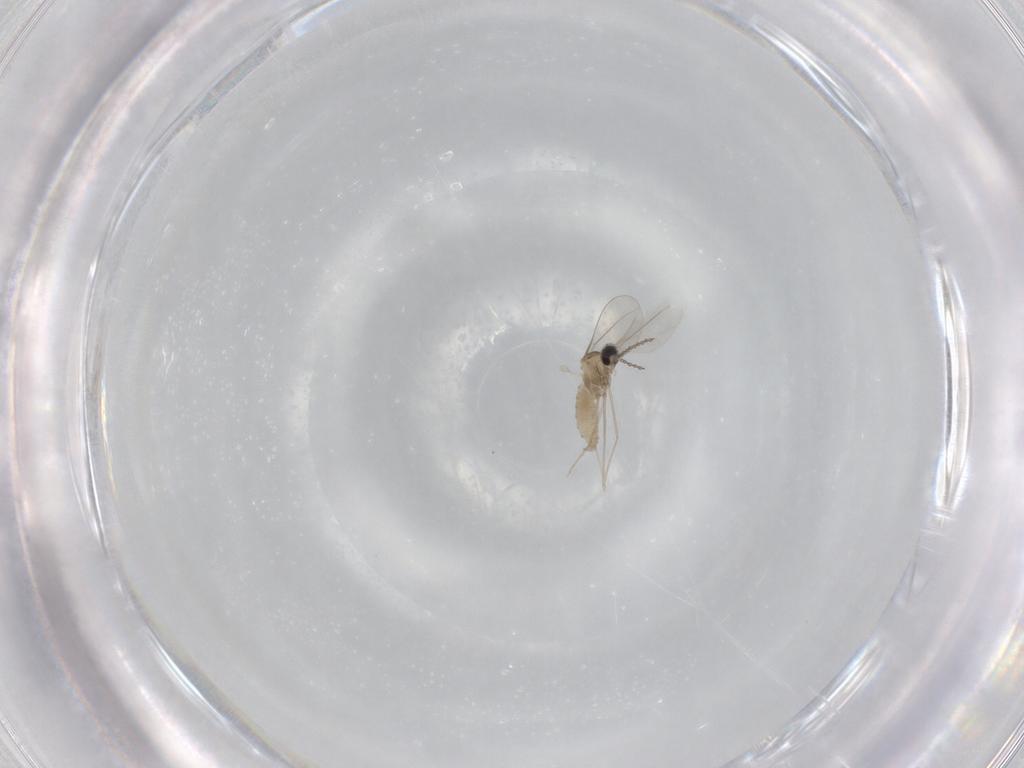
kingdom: Animalia
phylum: Arthropoda
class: Insecta
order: Diptera
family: Cecidomyiidae
